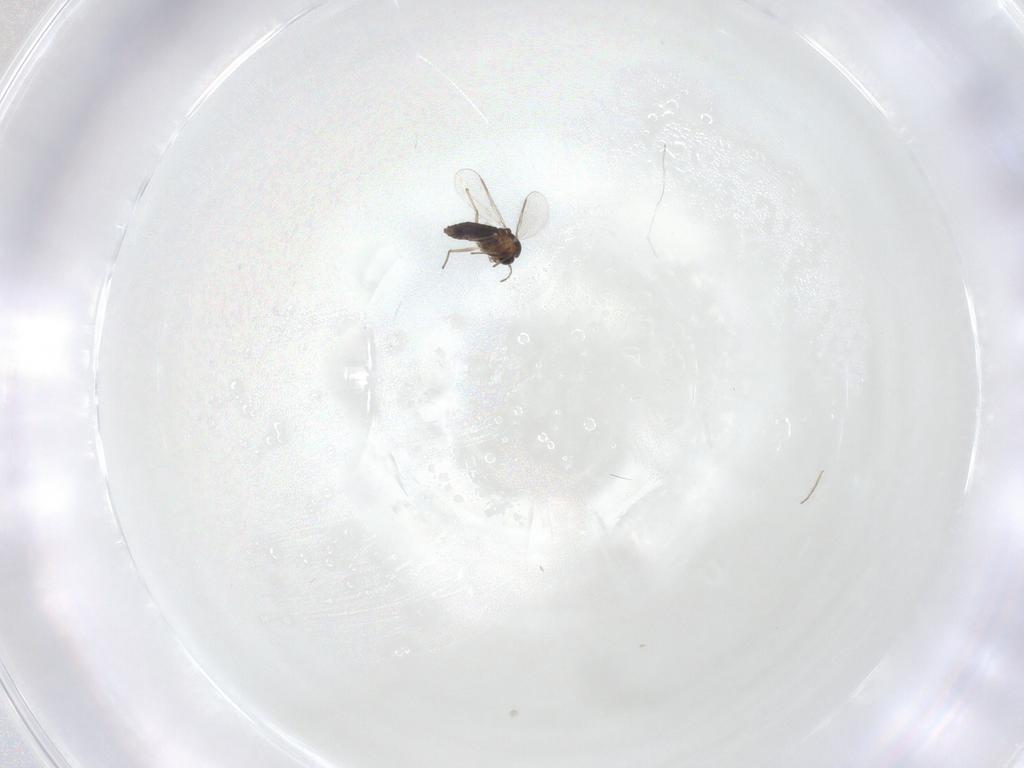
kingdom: Animalia
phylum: Arthropoda
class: Insecta
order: Diptera
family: Chironomidae
